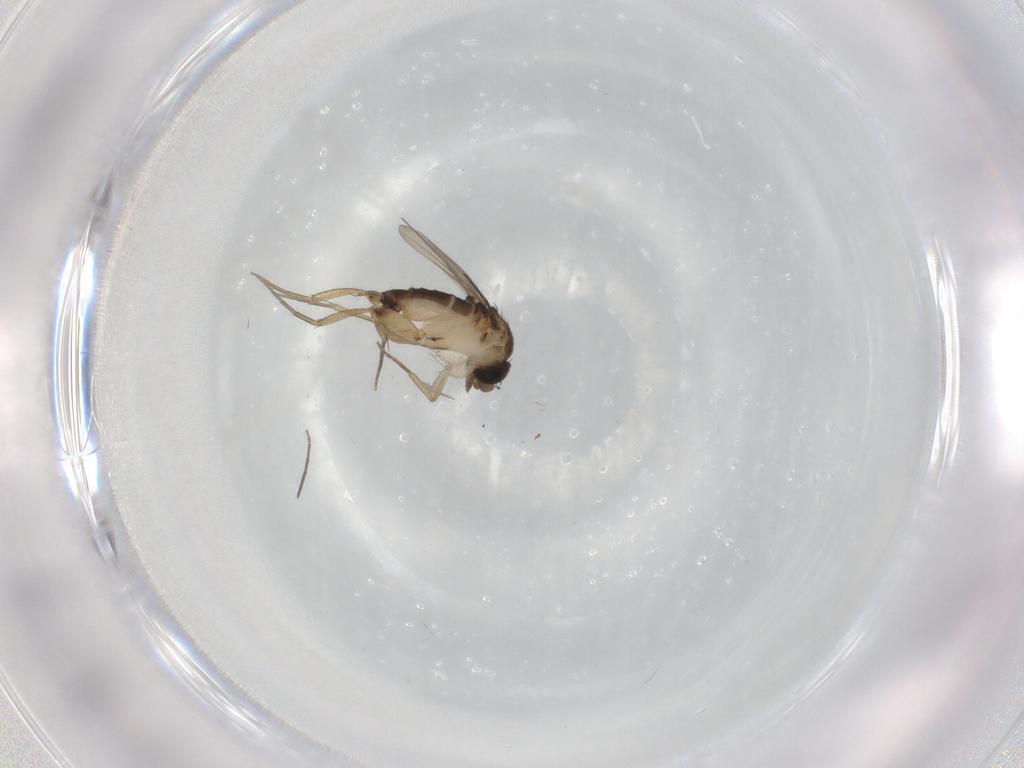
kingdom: Animalia
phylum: Arthropoda
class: Insecta
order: Diptera
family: Phoridae
